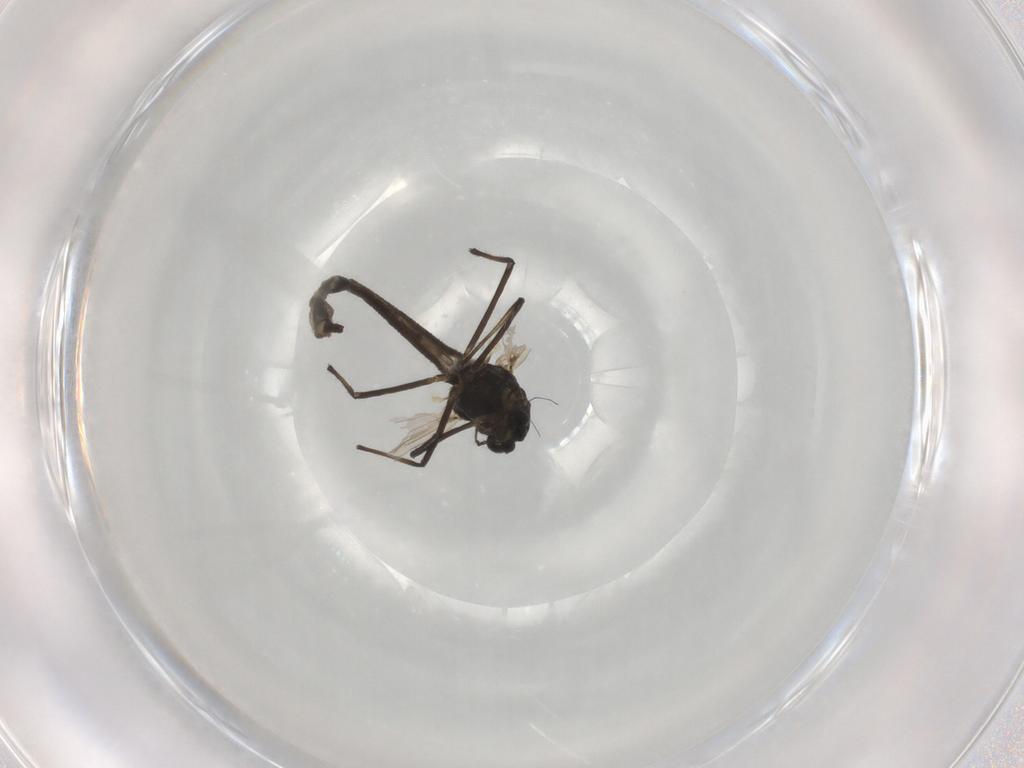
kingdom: Animalia
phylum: Arthropoda
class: Insecta
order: Diptera
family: Chironomidae
